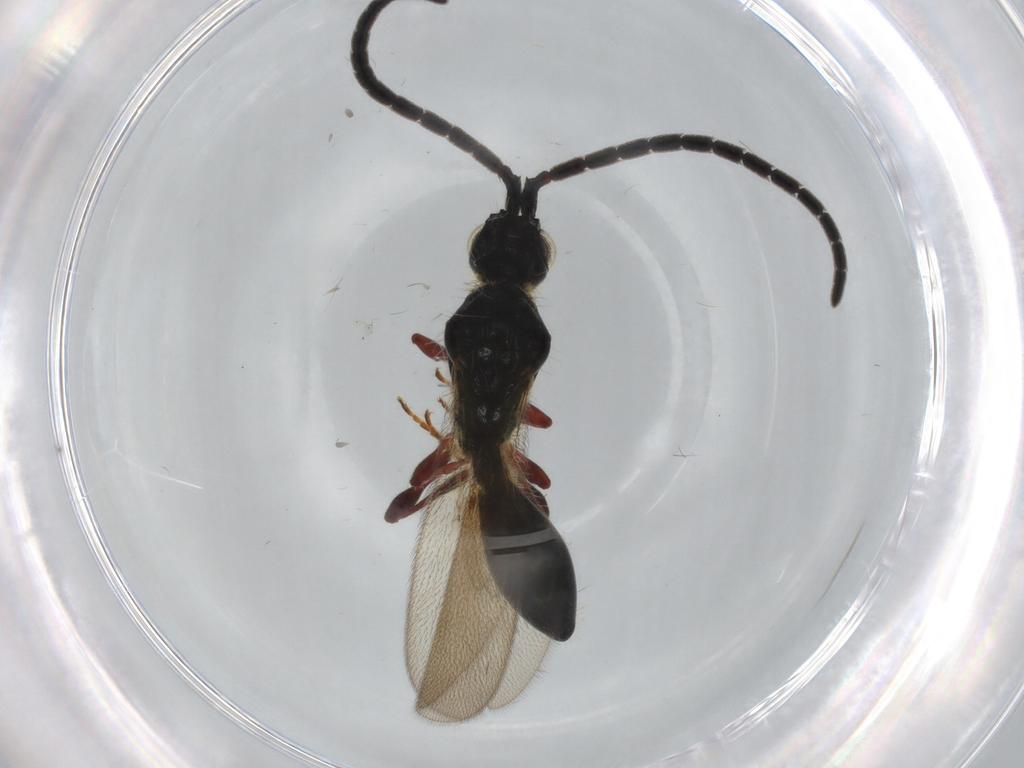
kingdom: Animalia
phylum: Arthropoda
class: Insecta
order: Hymenoptera
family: Diapriidae
